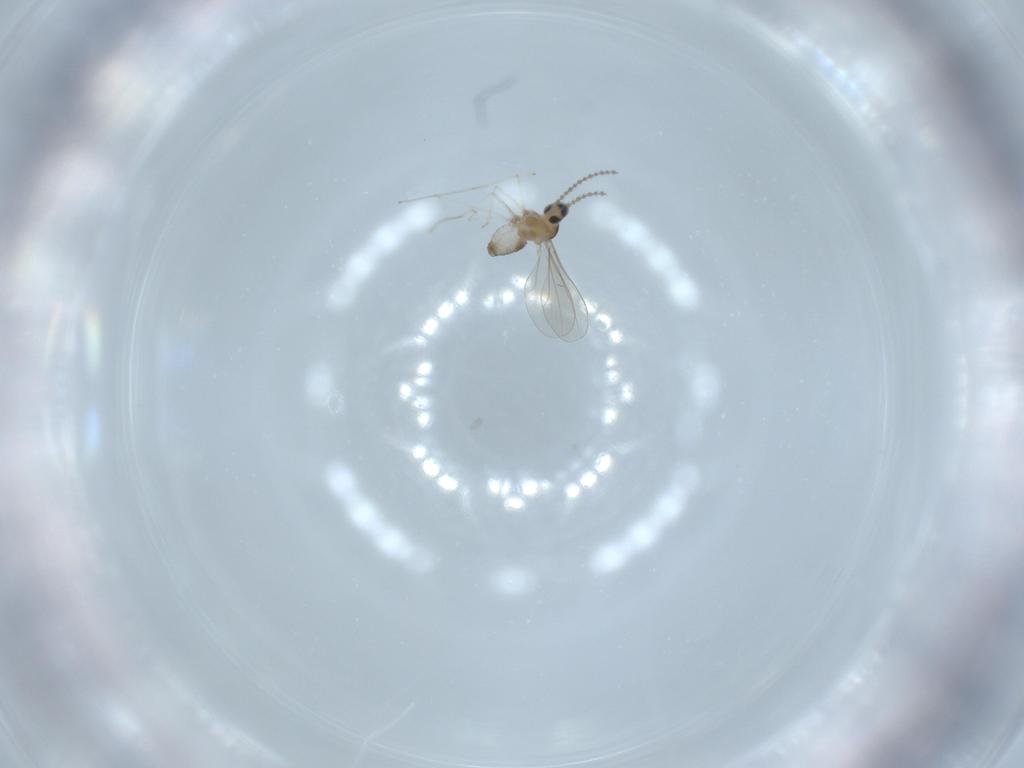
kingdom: Animalia
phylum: Arthropoda
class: Insecta
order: Diptera
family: Cecidomyiidae
